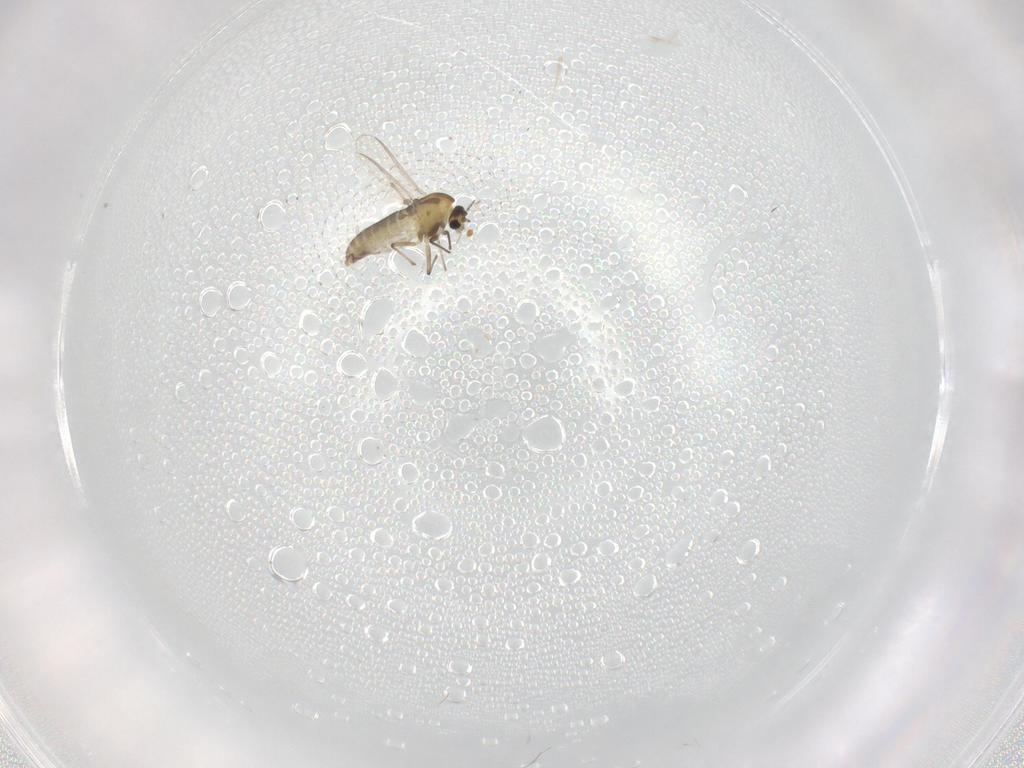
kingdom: Animalia
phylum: Arthropoda
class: Insecta
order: Diptera
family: Chironomidae
